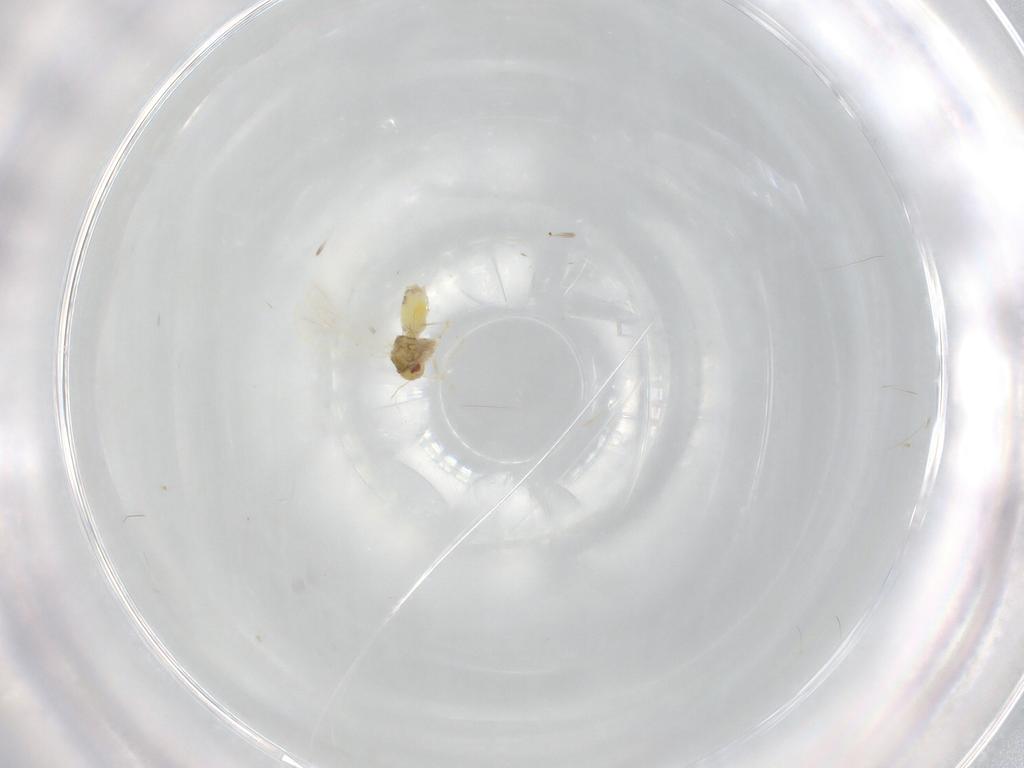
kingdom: Animalia
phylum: Arthropoda
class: Insecta
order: Hemiptera
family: Aleyrodidae
